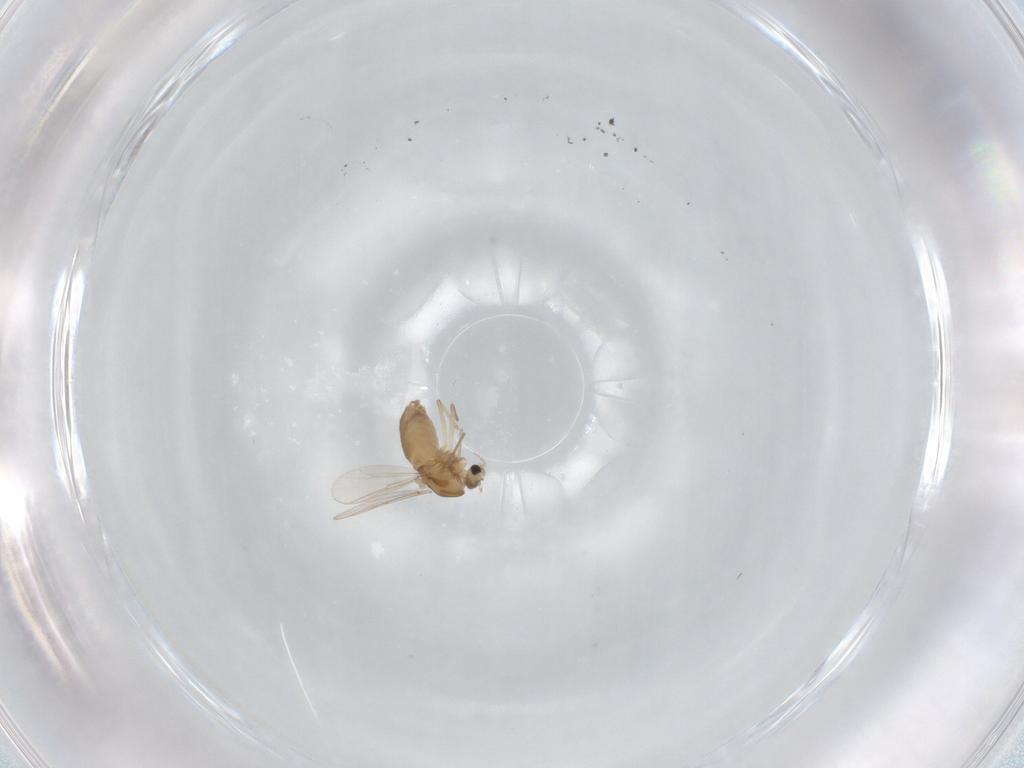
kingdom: Animalia
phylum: Arthropoda
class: Insecta
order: Diptera
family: Chironomidae
